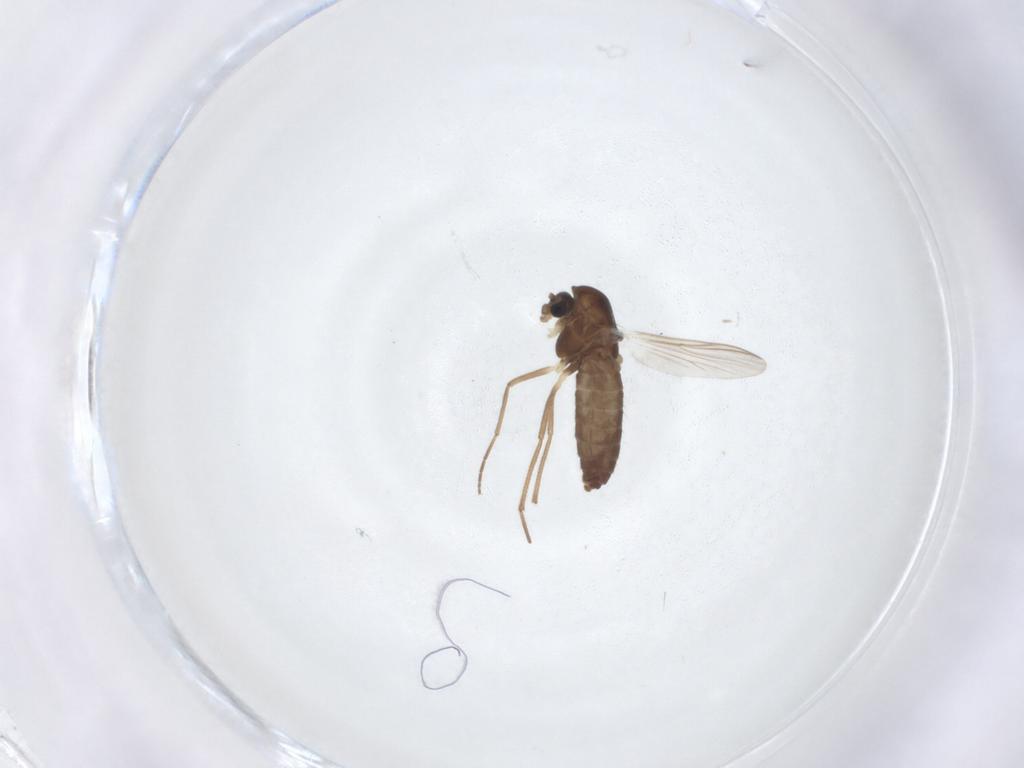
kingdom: Animalia
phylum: Arthropoda
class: Insecta
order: Diptera
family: Chironomidae
